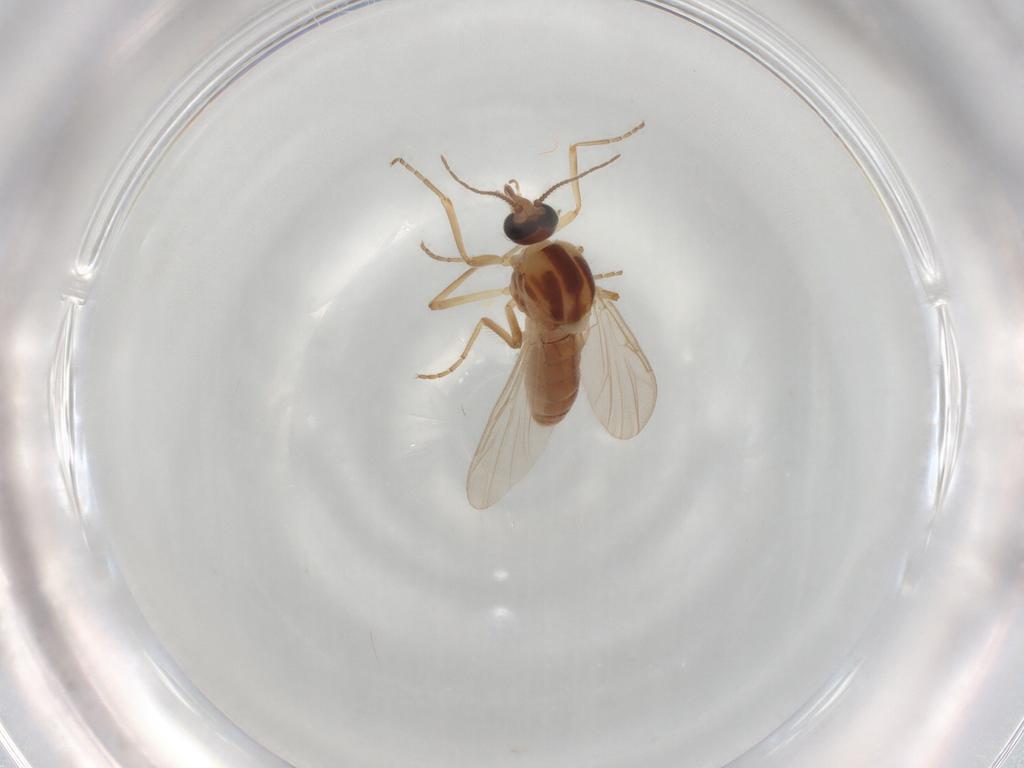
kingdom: Animalia
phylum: Arthropoda
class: Insecta
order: Diptera
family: Ceratopogonidae
